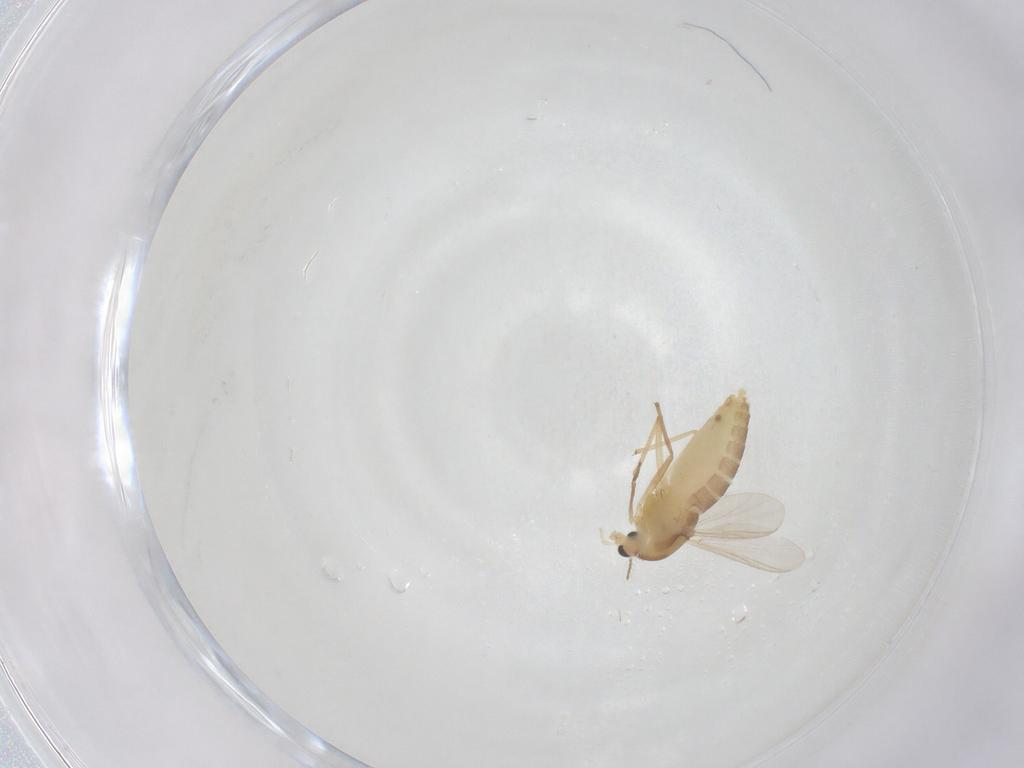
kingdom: Animalia
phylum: Arthropoda
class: Insecta
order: Diptera
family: Chironomidae
